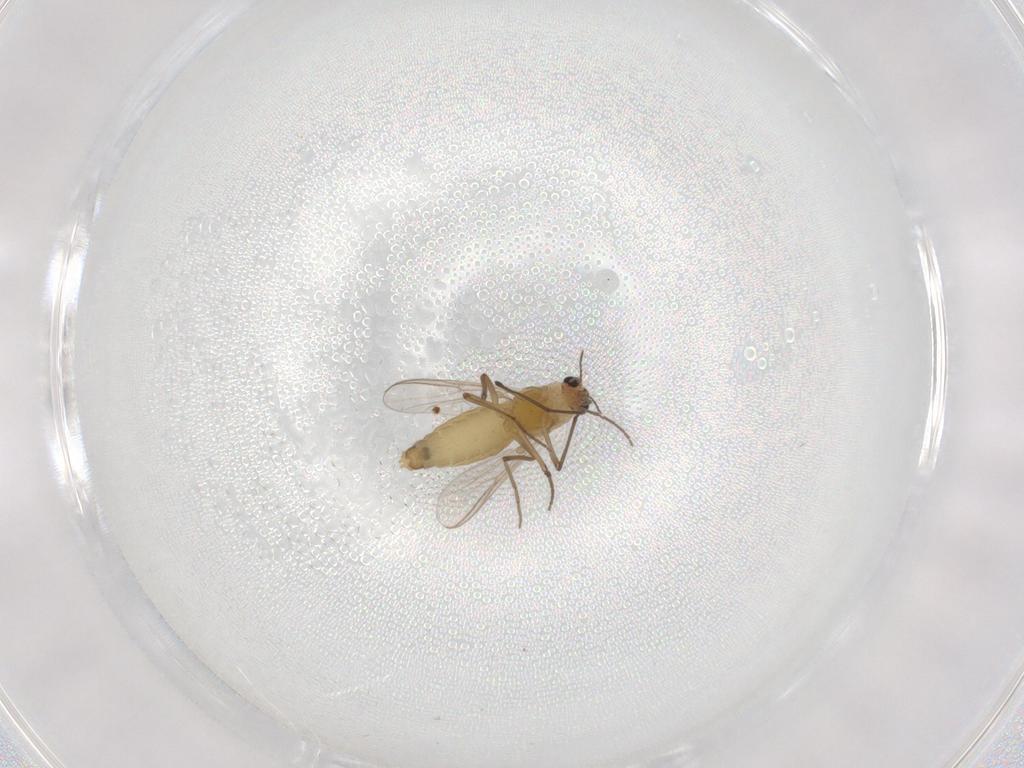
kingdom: Animalia
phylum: Arthropoda
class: Insecta
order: Diptera
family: Chironomidae
